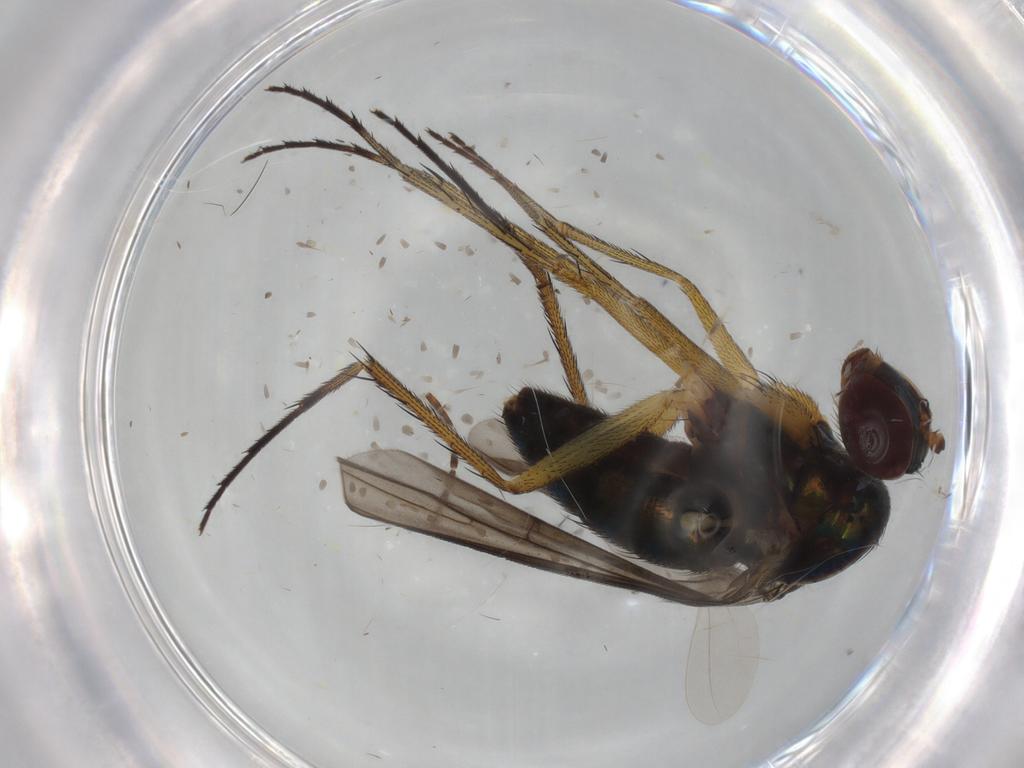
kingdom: Animalia
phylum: Arthropoda
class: Insecta
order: Diptera
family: Dolichopodidae
